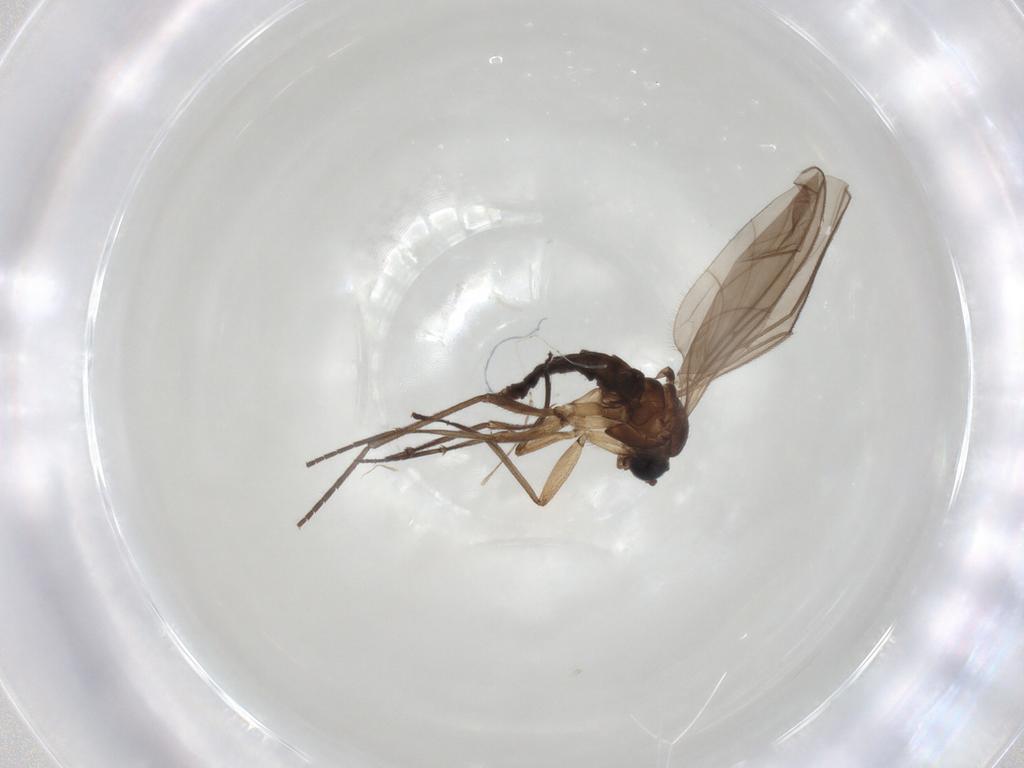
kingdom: Animalia
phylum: Arthropoda
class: Insecta
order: Diptera
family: Sciaridae
